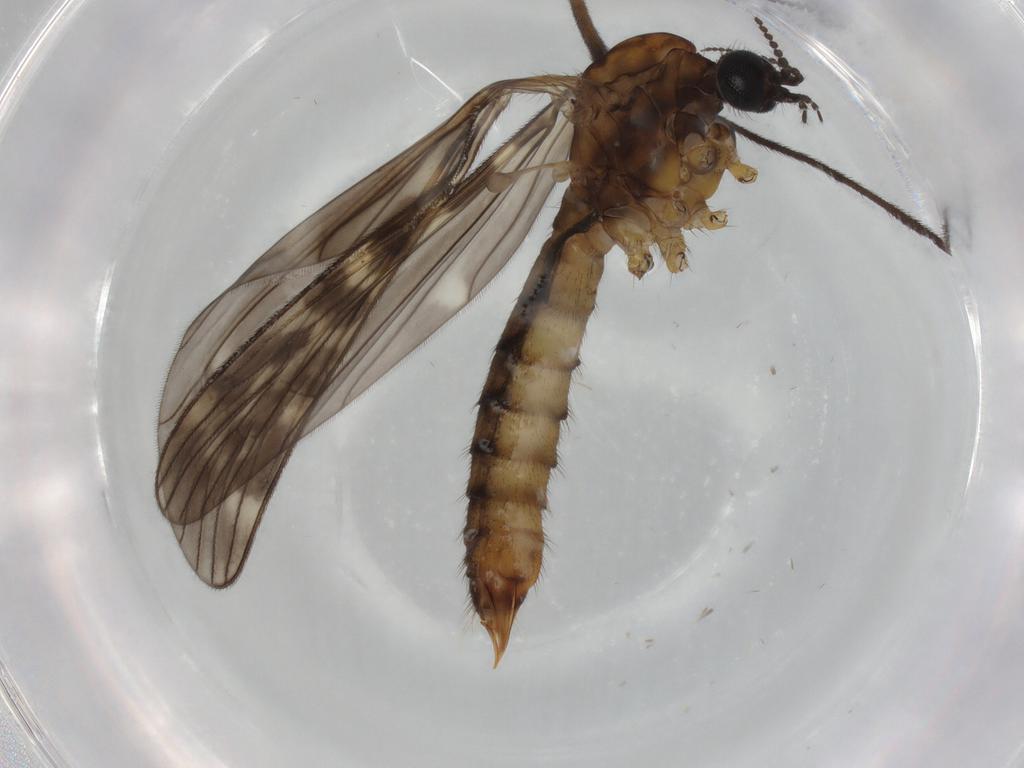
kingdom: Animalia
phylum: Arthropoda
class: Insecta
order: Diptera
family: Dolichopodidae
